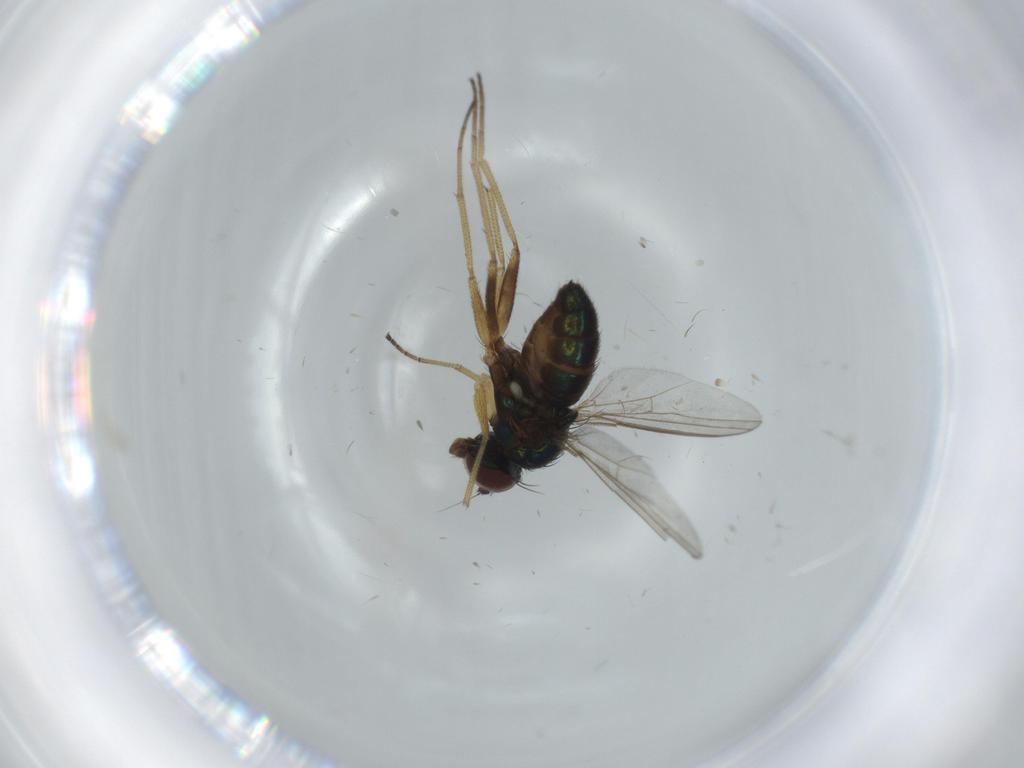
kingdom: Animalia
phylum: Arthropoda
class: Insecta
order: Diptera
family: Dolichopodidae
